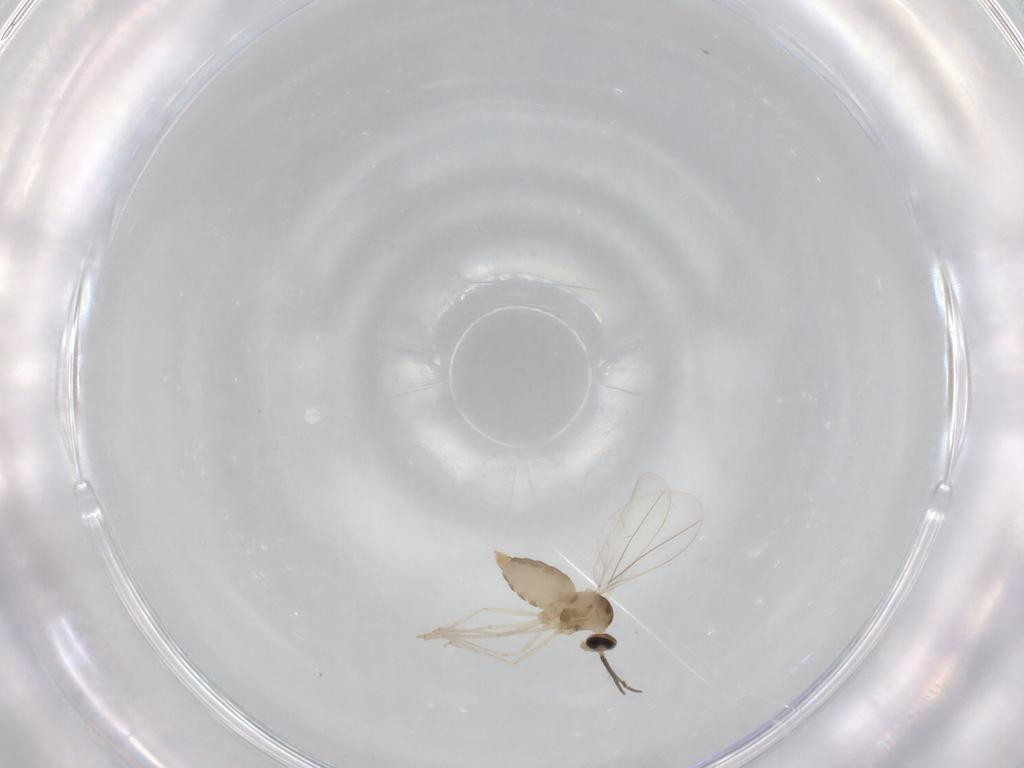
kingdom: Animalia
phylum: Arthropoda
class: Insecta
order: Diptera
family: Cecidomyiidae
